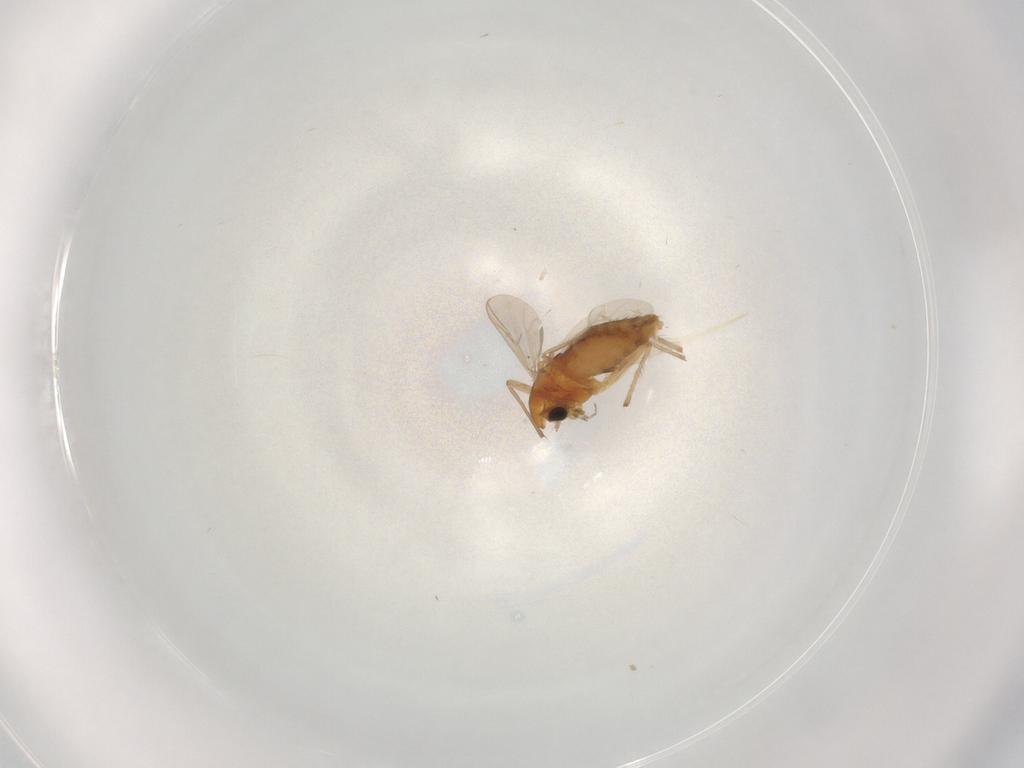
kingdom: Animalia
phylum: Arthropoda
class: Insecta
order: Diptera
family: Chironomidae
